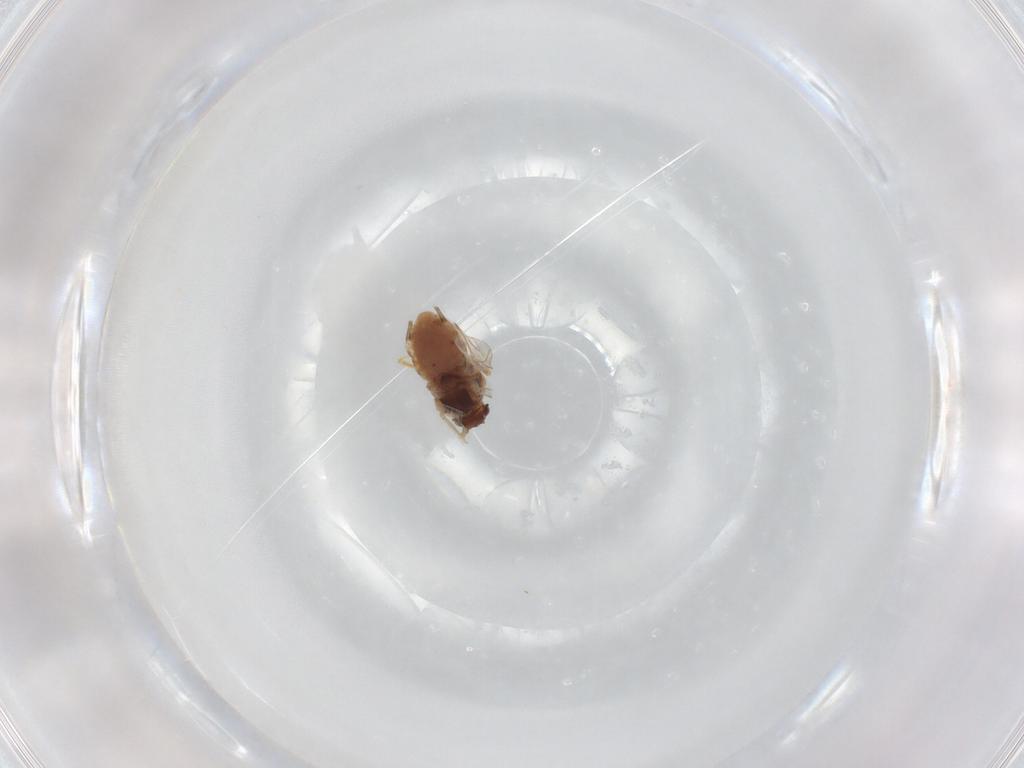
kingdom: Animalia
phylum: Arthropoda
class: Insecta
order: Hemiptera
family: Aphididae
